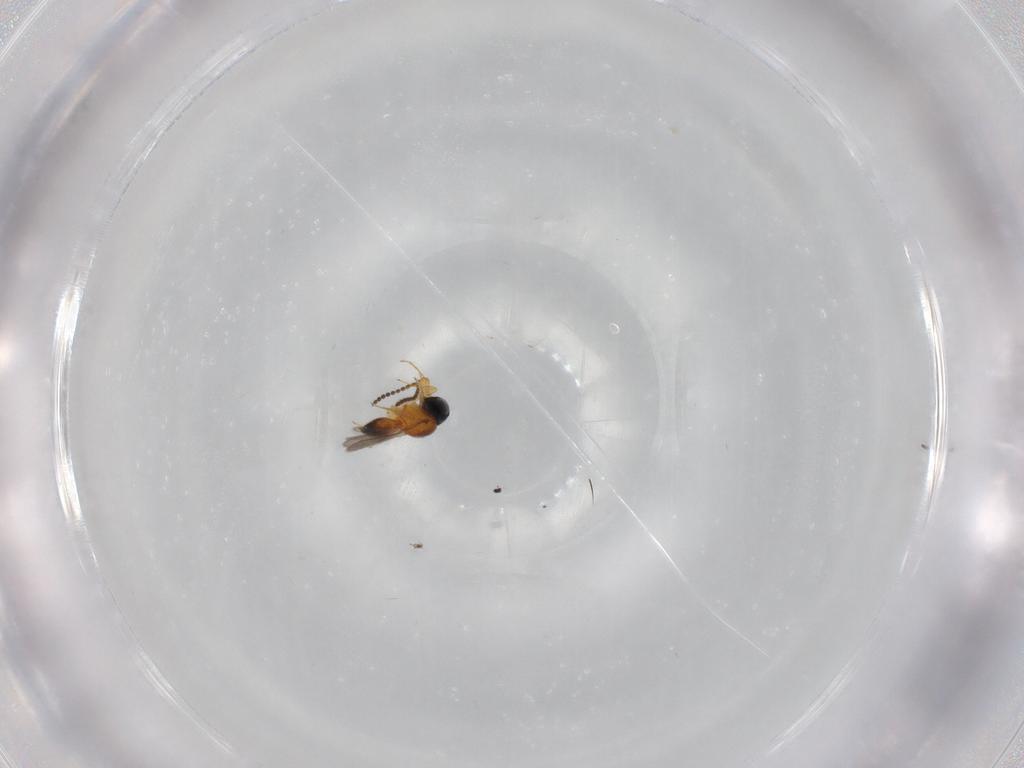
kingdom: Animalia
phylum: Arthropoda
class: Insecta
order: Hymenoptera
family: Scelionidae
